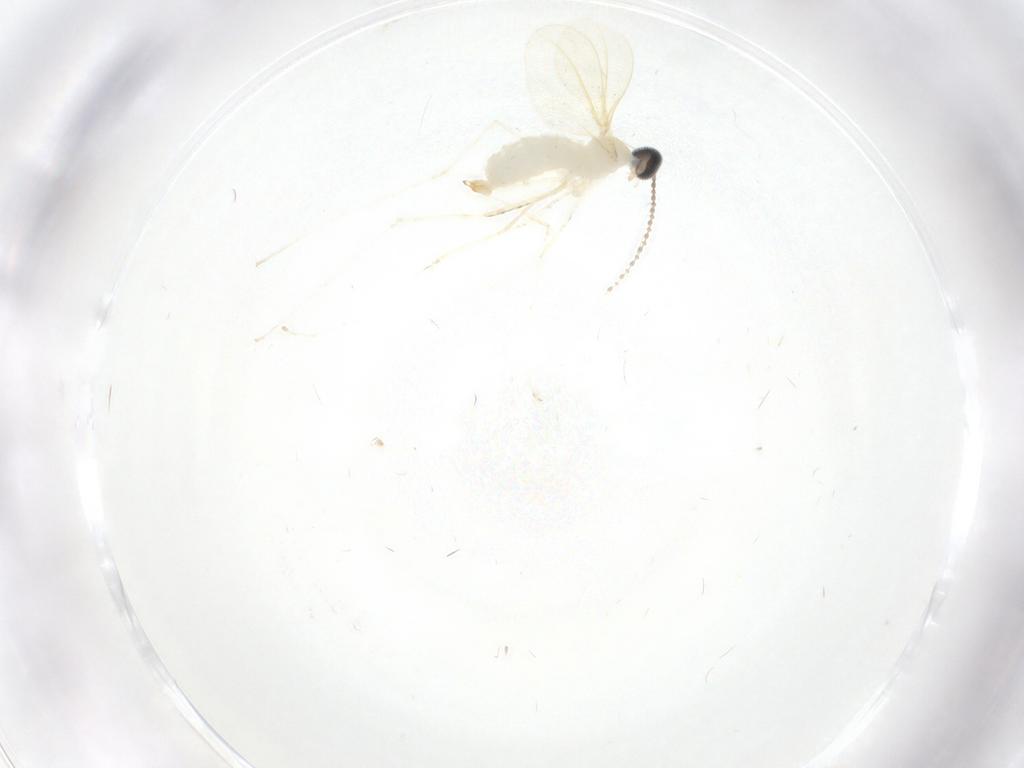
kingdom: Animalia
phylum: Arthropoda
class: Insecta
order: Diptera
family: Cecidomyiidae
